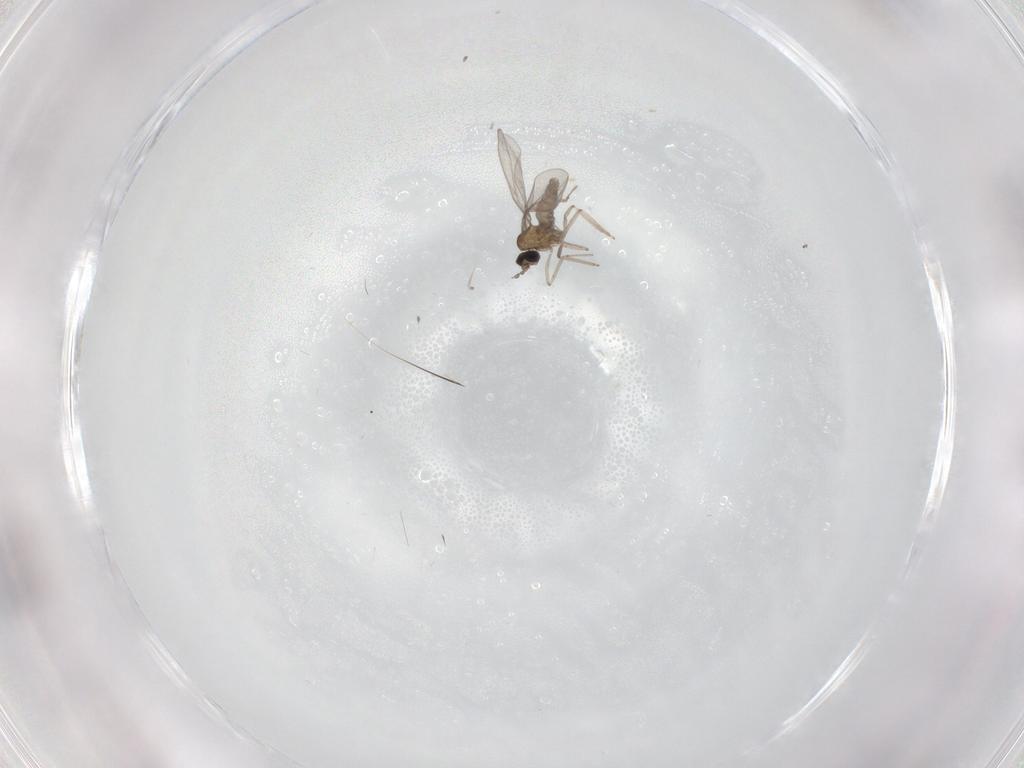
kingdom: Animalia
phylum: Arthropoda
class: Insecta
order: Diptera
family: Cecidomyiidae
